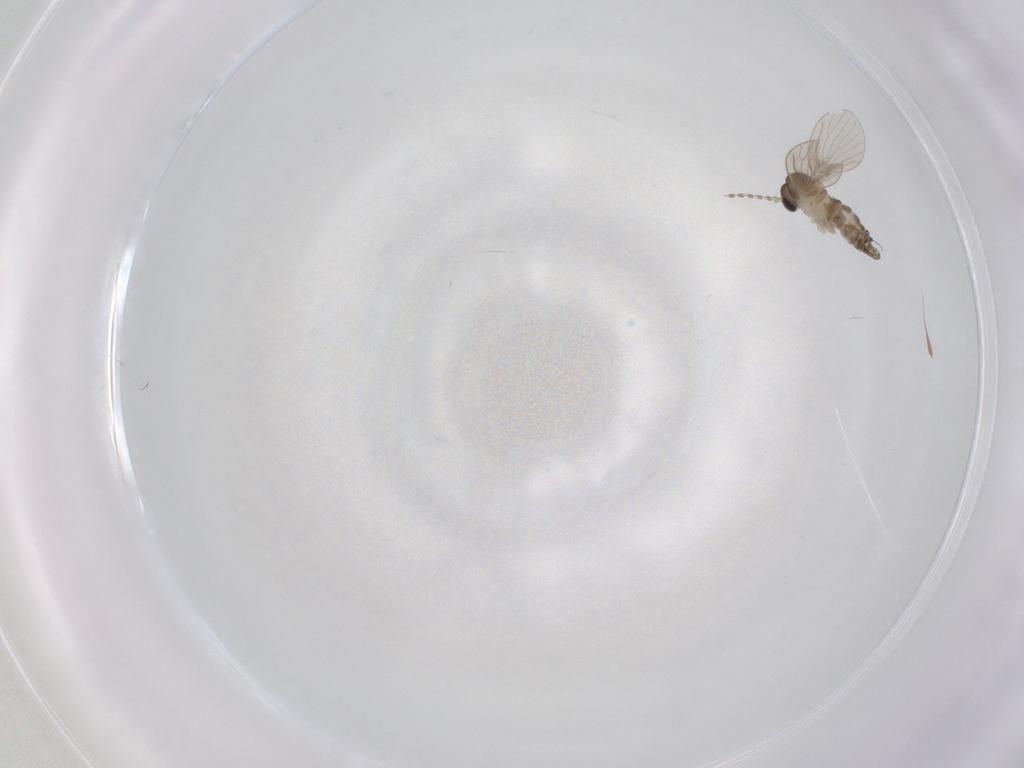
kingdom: Animalia
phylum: Arthropoda
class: Insecta
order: Diptera
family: Cecidomyiidae
